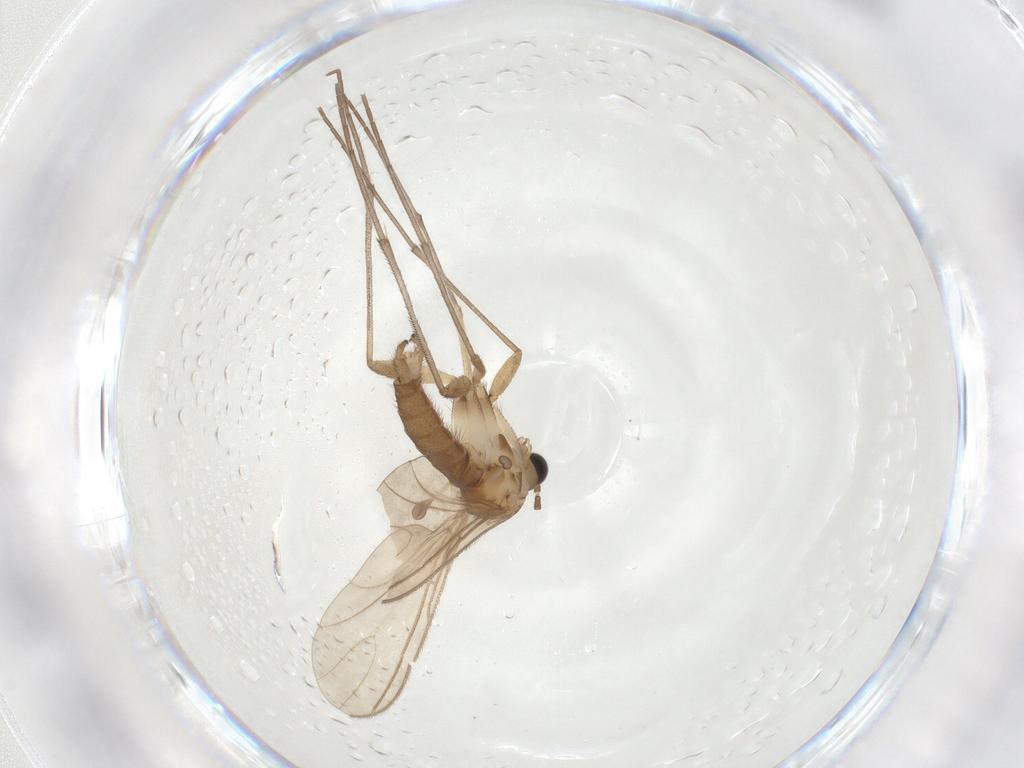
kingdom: Animalia
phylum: Arthropoda
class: Insecta
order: Diptera
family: Sciaridae
